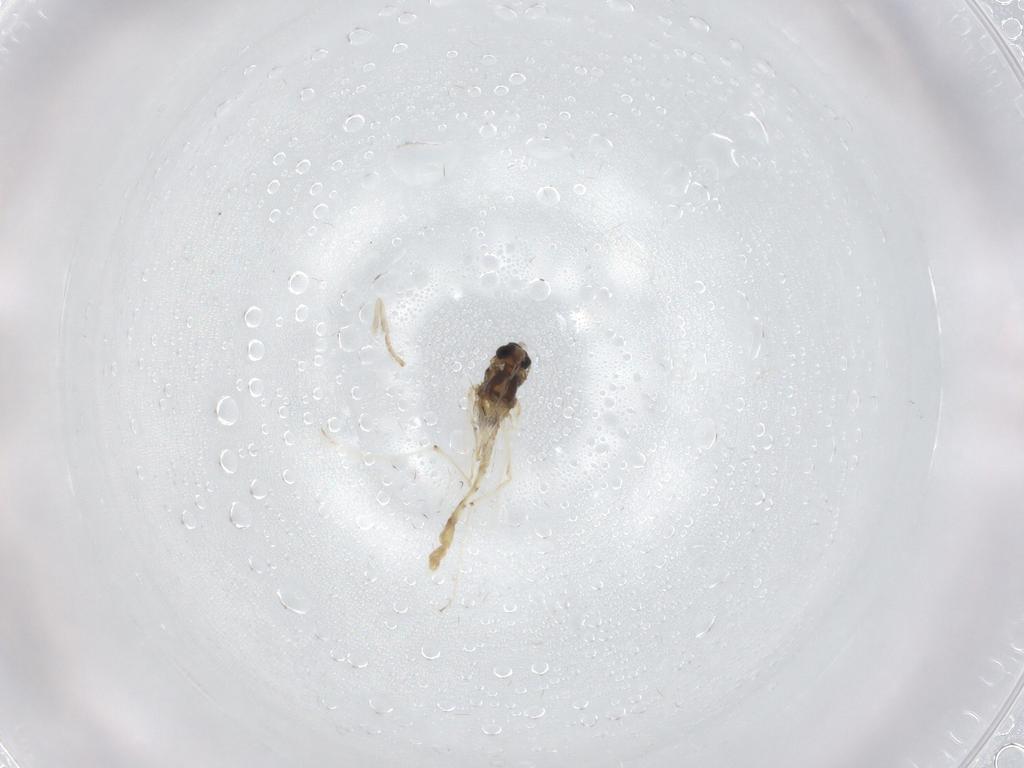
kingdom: Animalia
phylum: Arthropoda
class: Insecta
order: Diptera
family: Chironomidae
